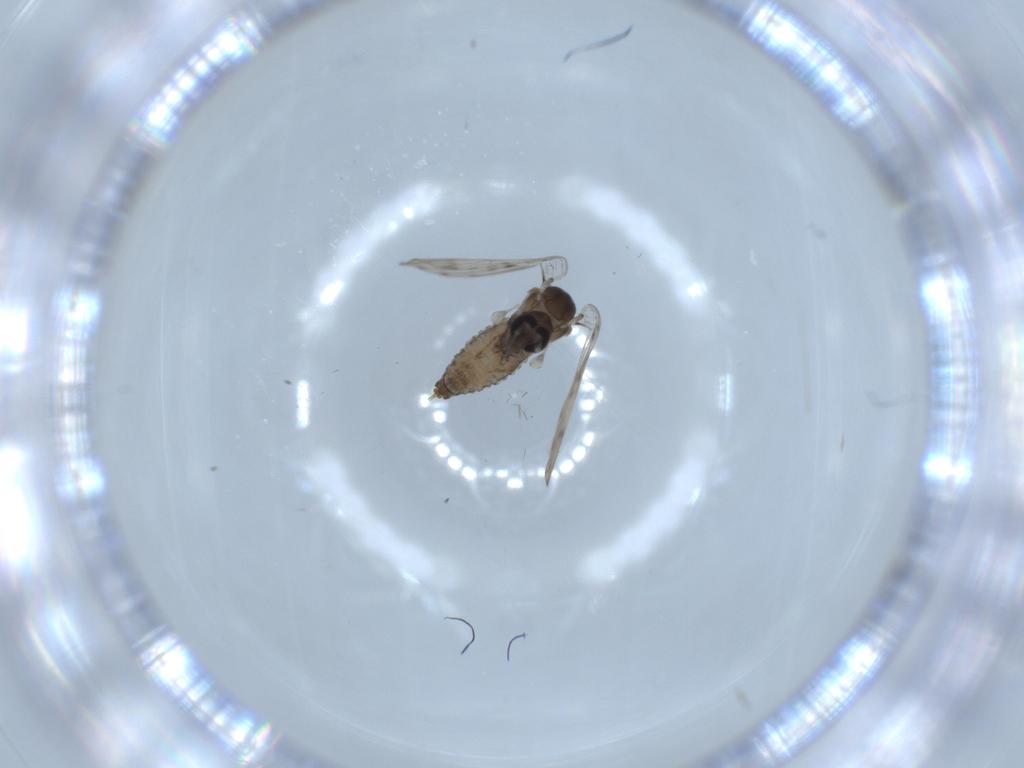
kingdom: Animalia
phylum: Arthropoda
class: Insecta
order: Diptera
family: Psychodidae
